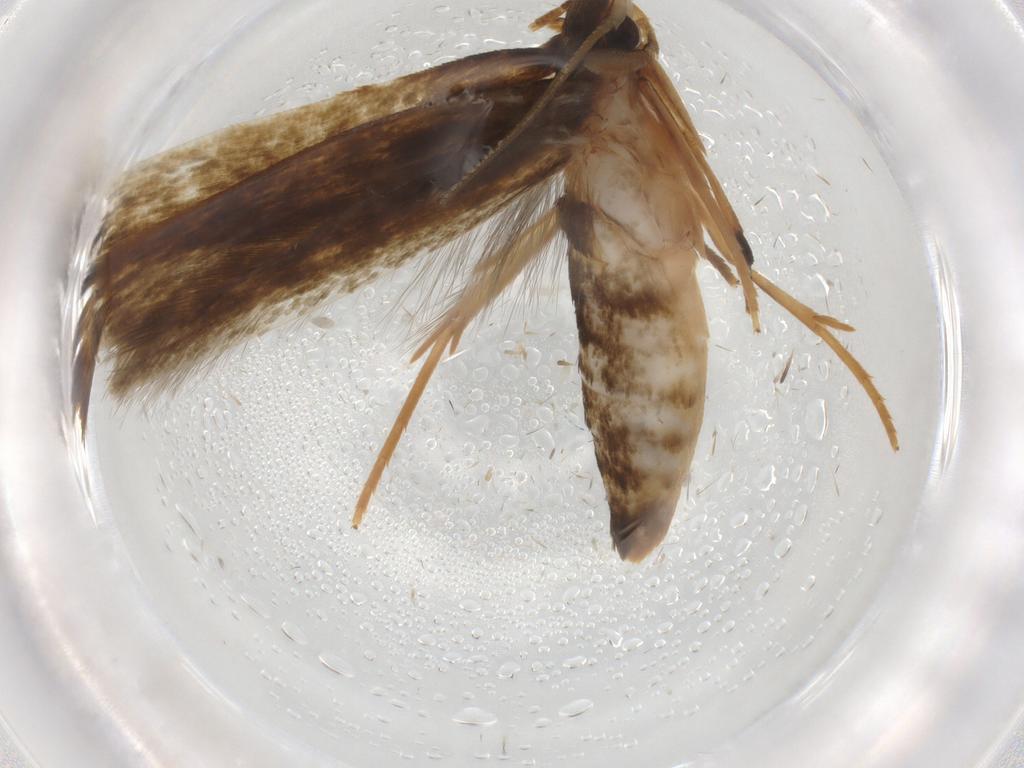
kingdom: Animalia
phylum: Arthropoda
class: Insecta
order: Lepidoptera
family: Tineidae
